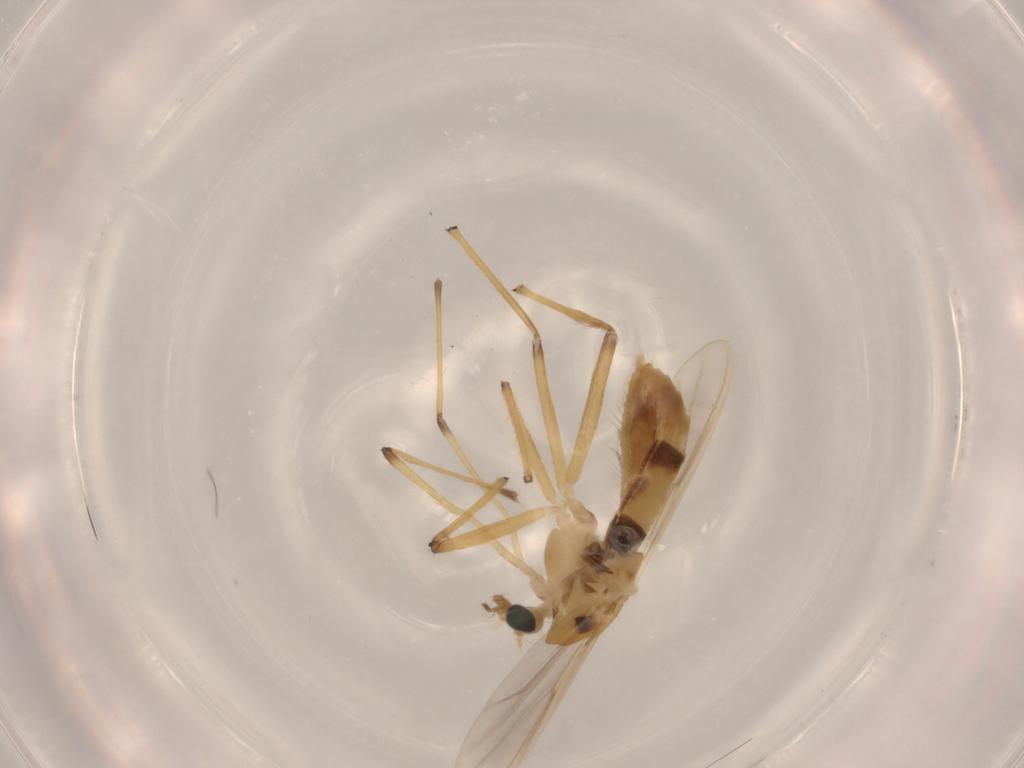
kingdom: Animalia
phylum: Arthropoda
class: Insecta
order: Diptera
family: Chironomidae
